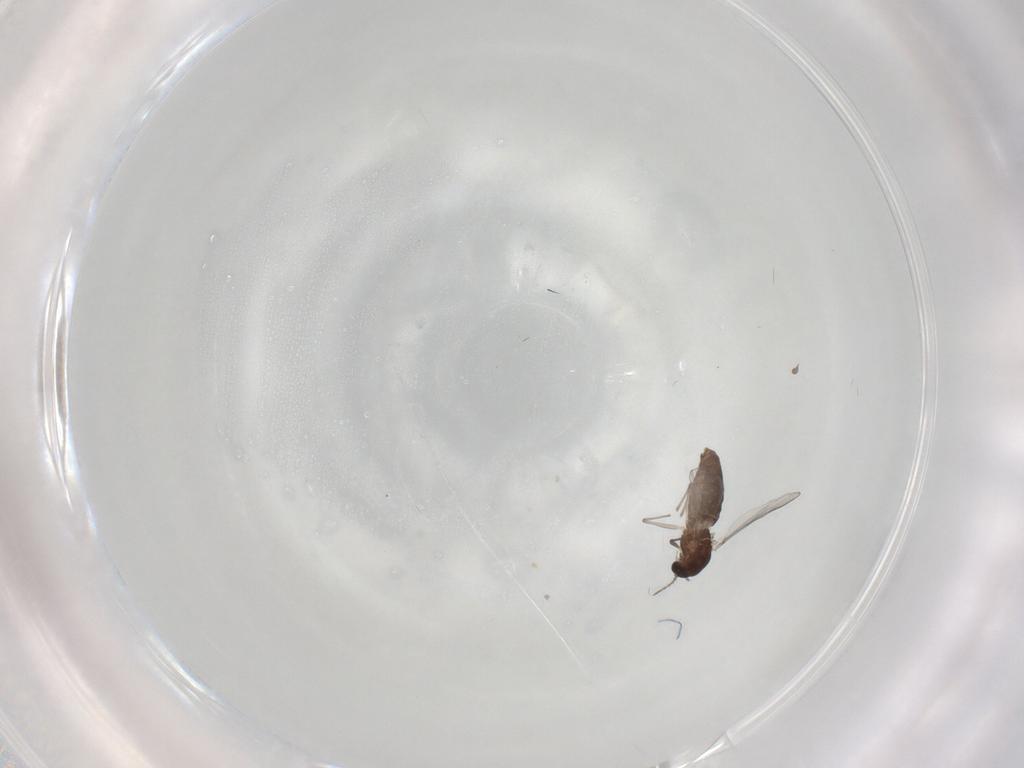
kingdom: Animalia
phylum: Arthropoda
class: Insecta
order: Diptera
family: Chironomidae
